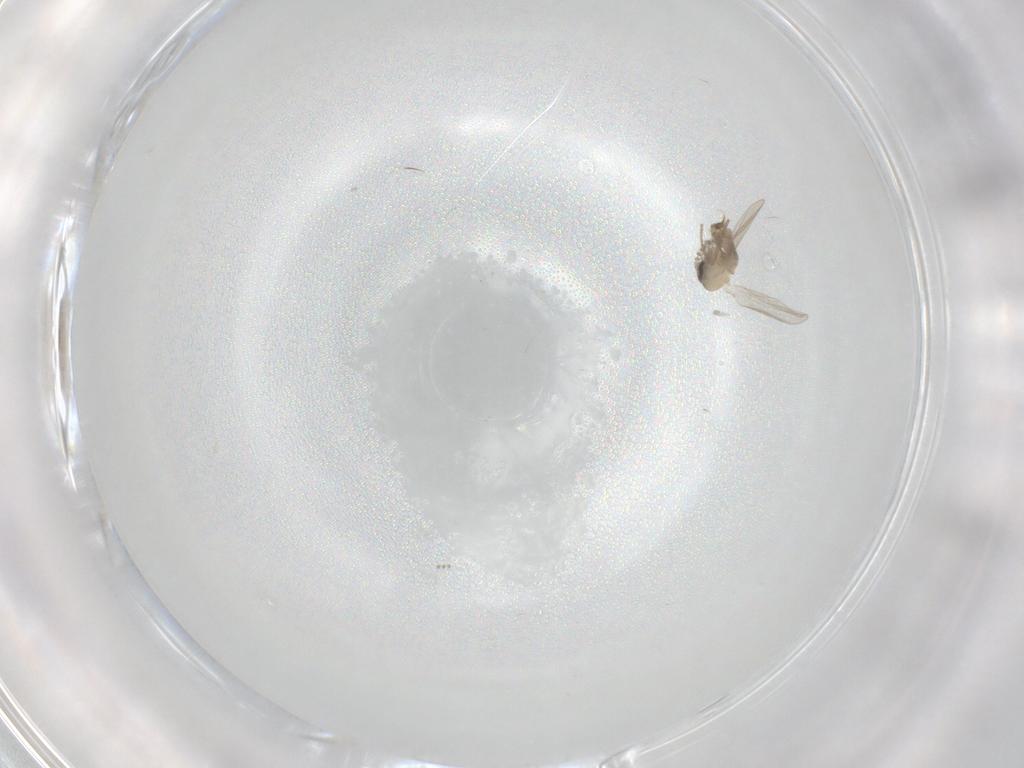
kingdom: Animalia
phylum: Arthropoda
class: Insecta
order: Diptera
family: Psychodidae
